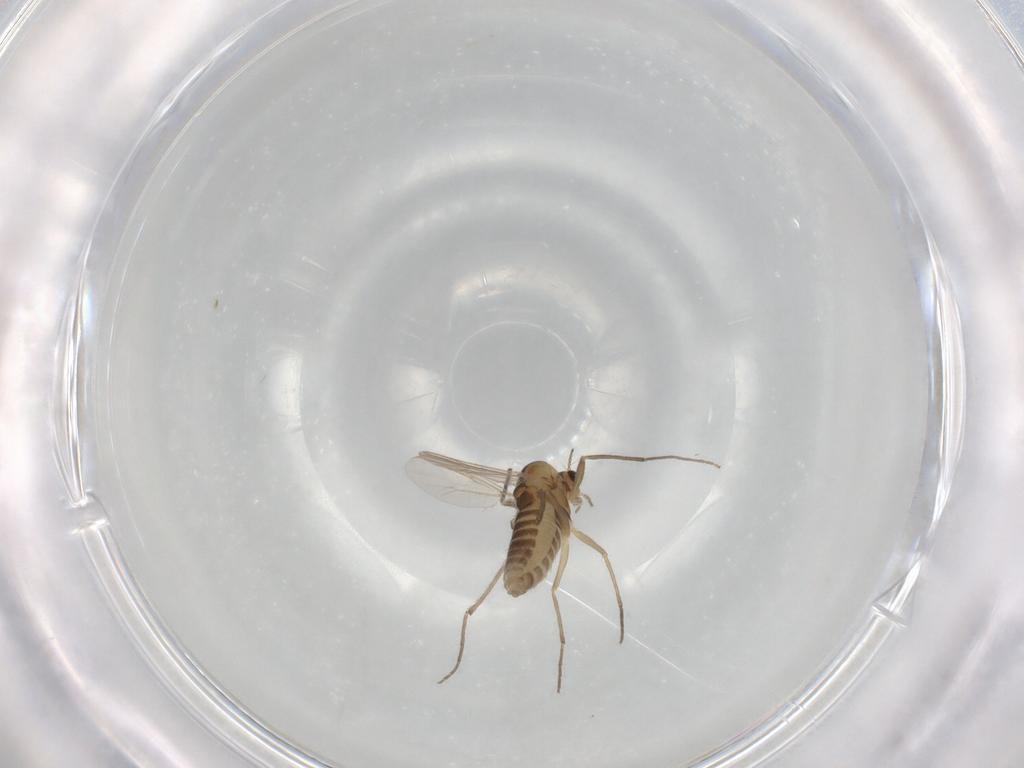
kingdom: Animalia
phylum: Arthropoda
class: Insecta
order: Diptera
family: Chironomidae
